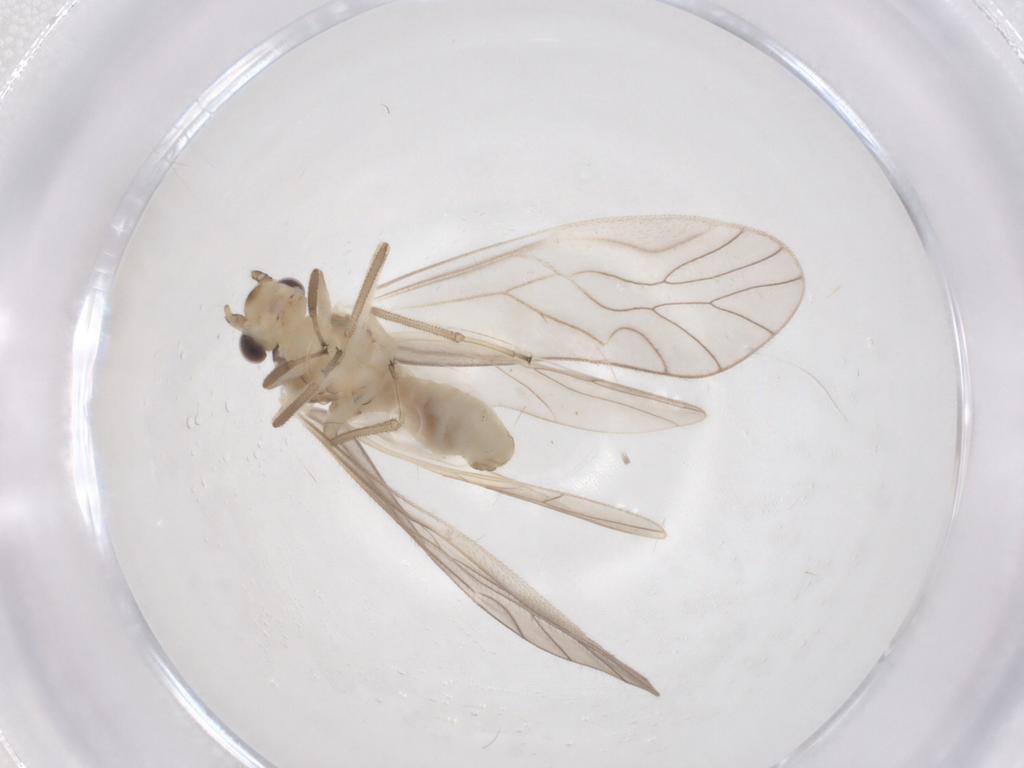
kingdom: Animalia
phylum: Arthropoda
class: Insecta
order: Psocodea
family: Caeciliusidae
